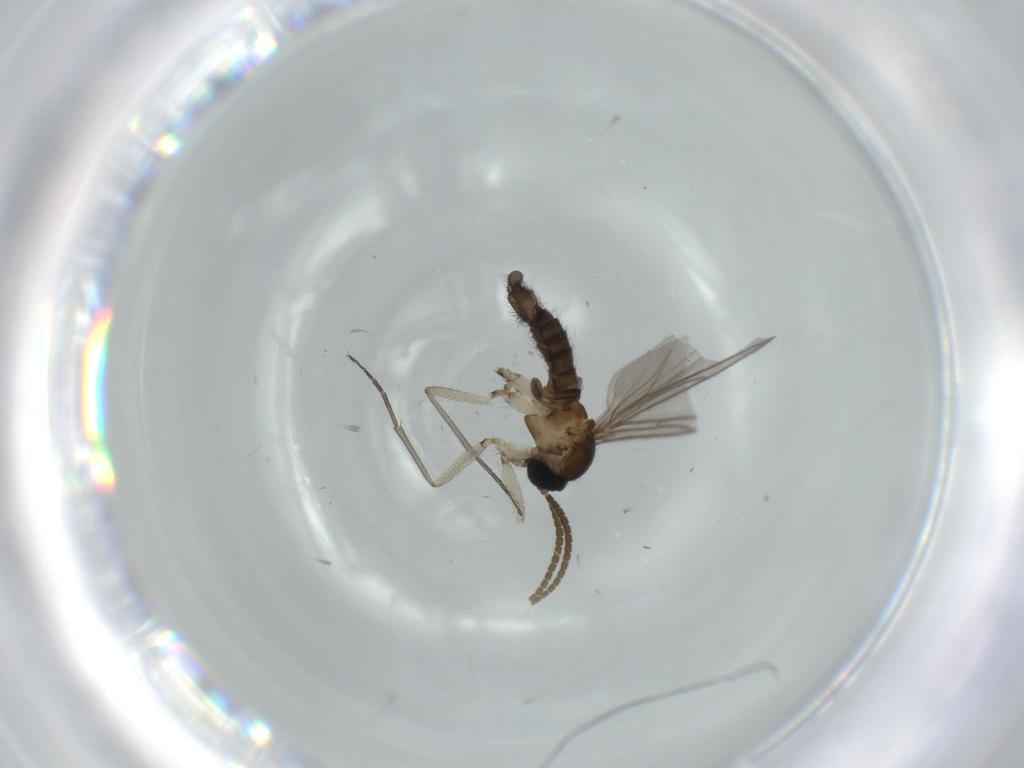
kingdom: Animalia
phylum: Arthropoda
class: Insecta
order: Diptera
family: Sciaridae
